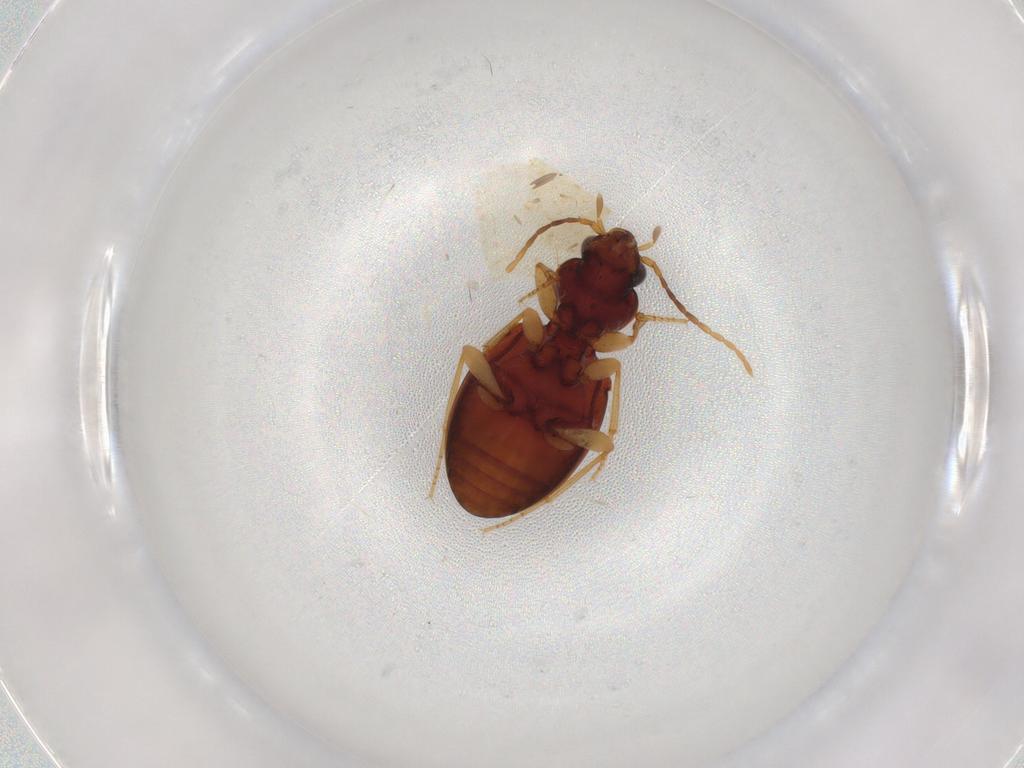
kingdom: Animalia
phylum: Arthropoda
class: Insecta
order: Coleoptera
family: Carabidae
